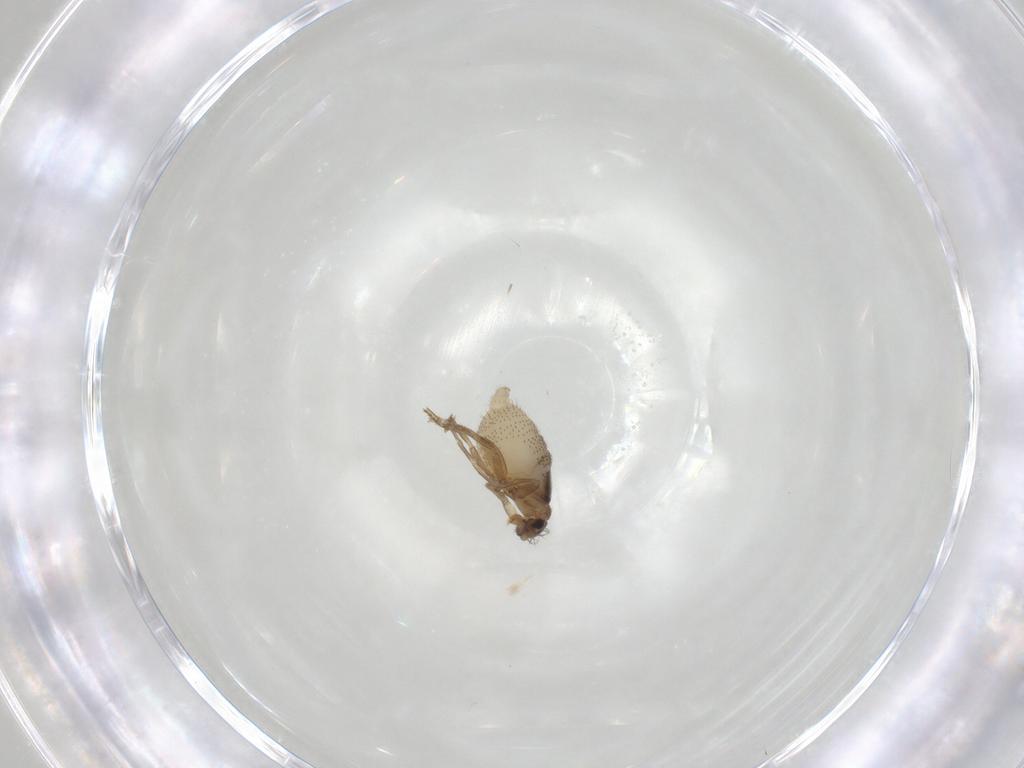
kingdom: Animalia
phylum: Arthropoda
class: Insecta
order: Diptera
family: Phoridae
